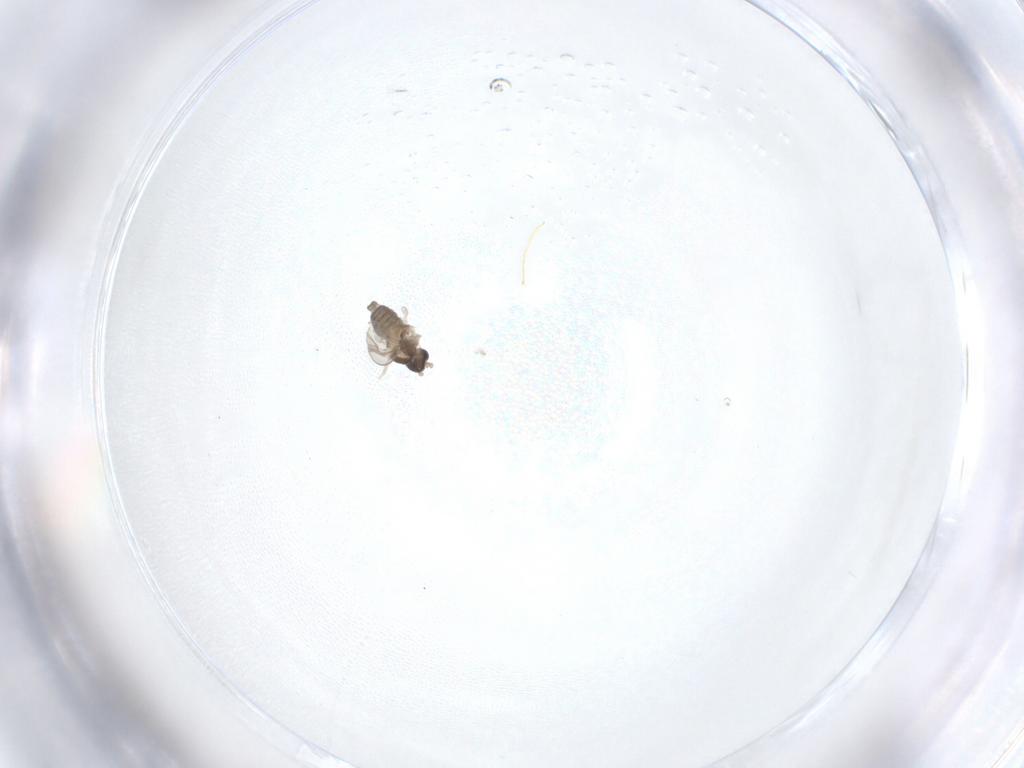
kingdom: Animalia
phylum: Arthropoda
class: Insecta
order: Diptera
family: Cecidomyiidae
